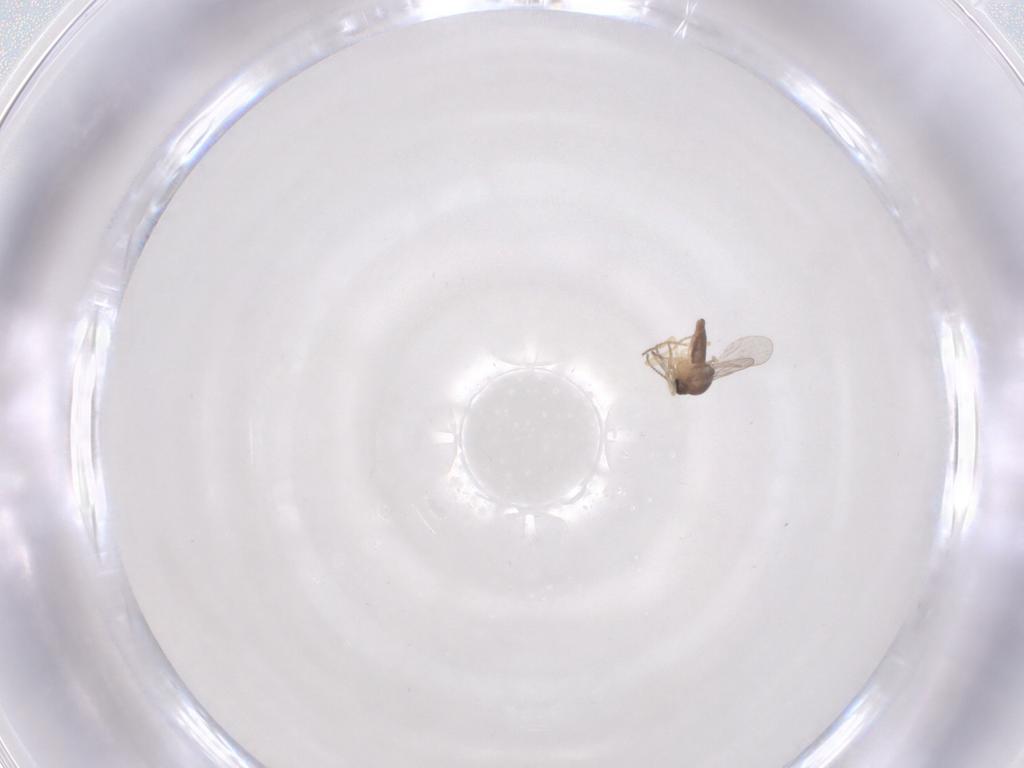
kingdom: Animalia
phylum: Arthropoda
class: Insecta
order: Diptera
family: Ceratopogonidae
